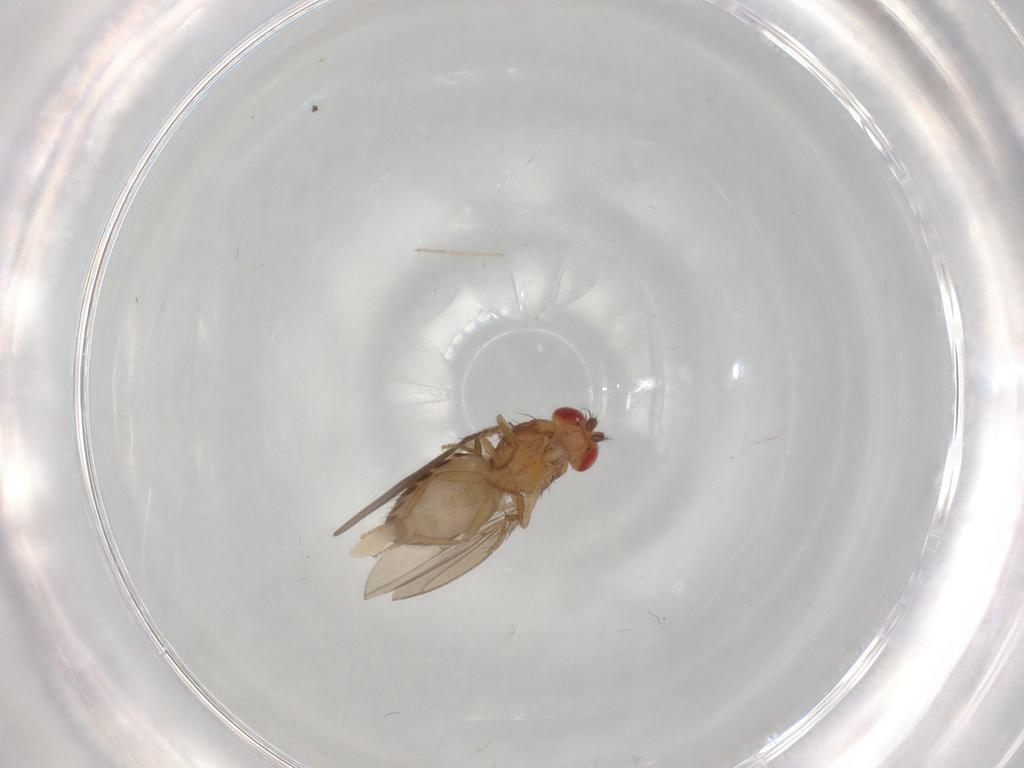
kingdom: Animalia
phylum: Arthropoda
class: Insecta
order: Diptera
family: Drosophilidae
